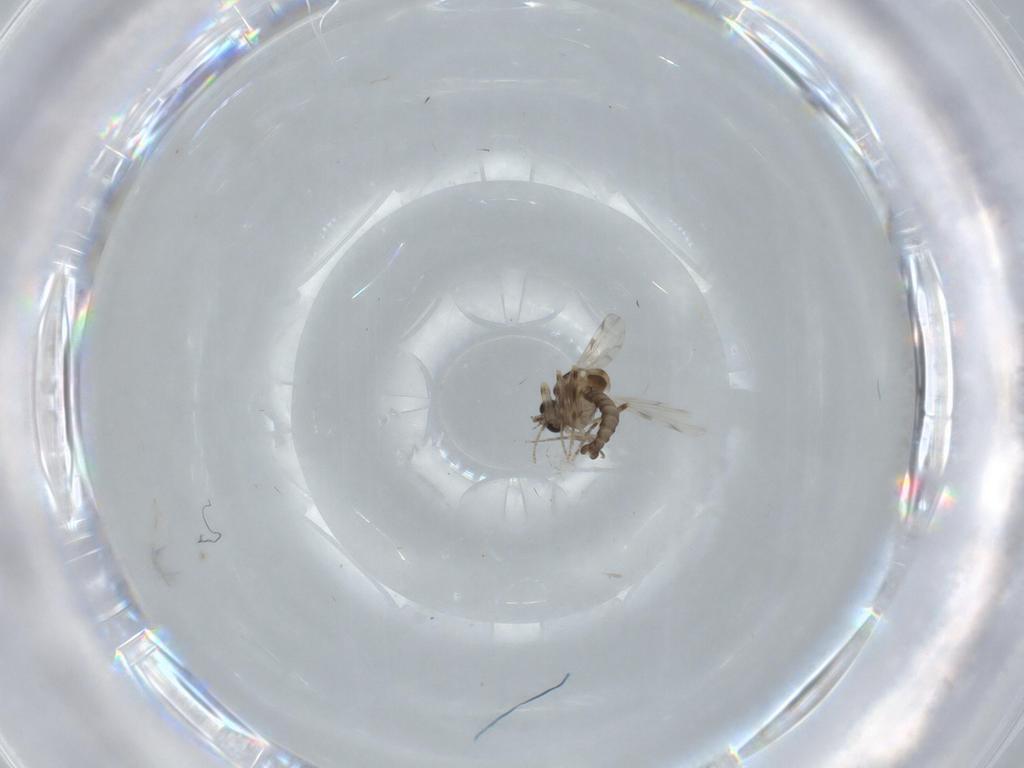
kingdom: Animalia
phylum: Arthropoda
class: Insecta
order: Diptera
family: Ceratopogonidae
